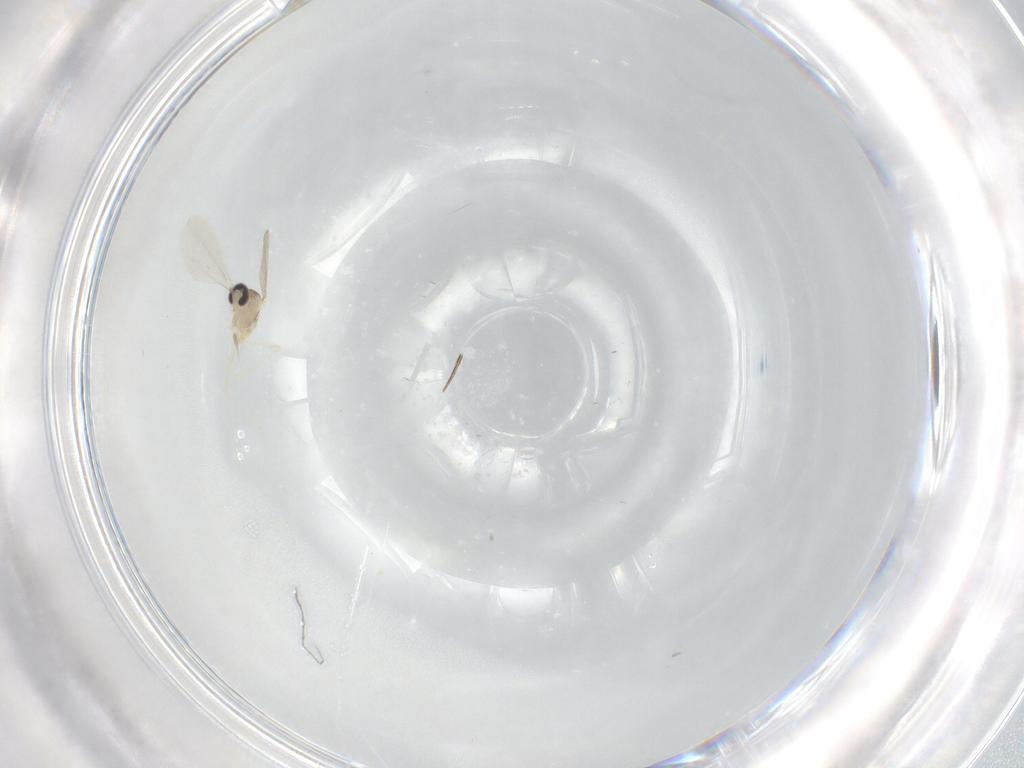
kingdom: Animalia
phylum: Arthropoda
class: Insecta
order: Diptera
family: Cecidomyiidae
